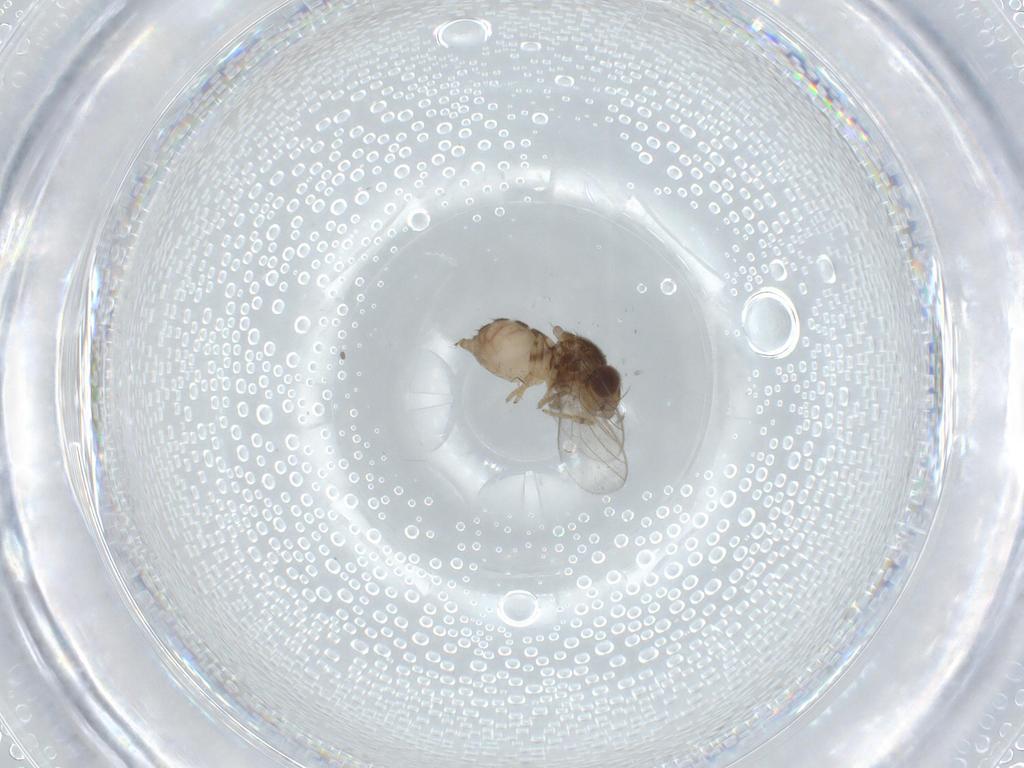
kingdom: Animalia
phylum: Arthropoda
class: Insecta
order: Diptera
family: Chloropidae
